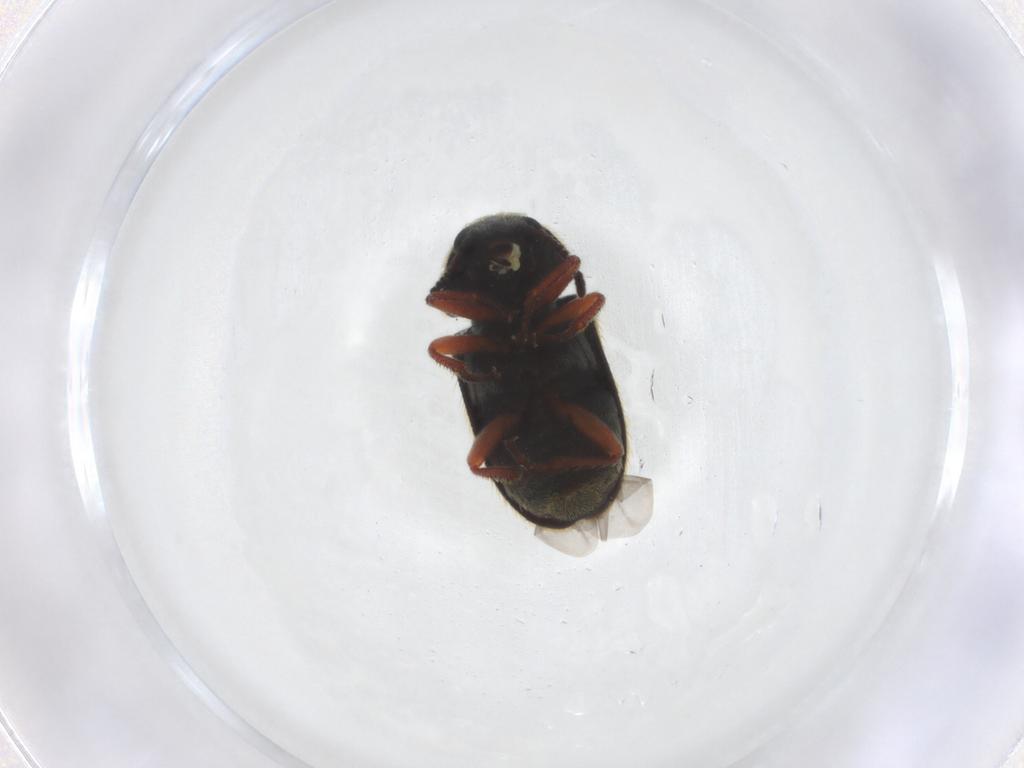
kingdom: Animalia
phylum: Arthropoda
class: Insecta
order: Coleoptera
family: Melyridae
